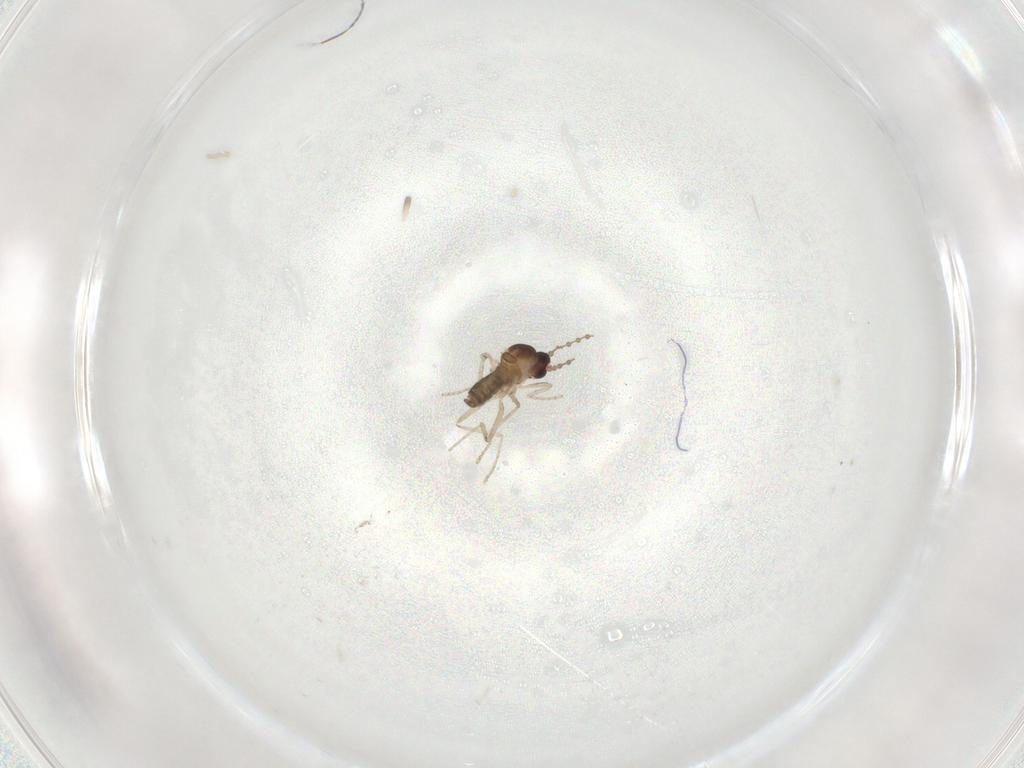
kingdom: Animalia
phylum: Arthropoda
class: Insecta
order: Diptera
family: Cecidomyiidae
